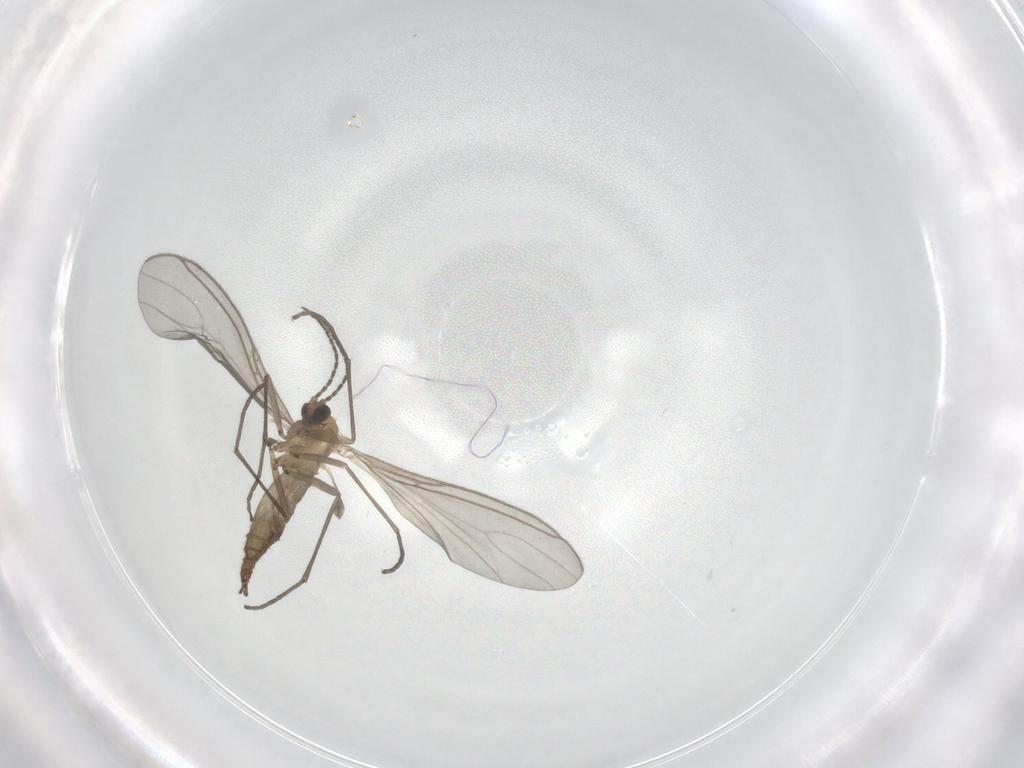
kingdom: Animalia
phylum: Arthropoda
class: Insecta
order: Diptera
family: Sciaridae
